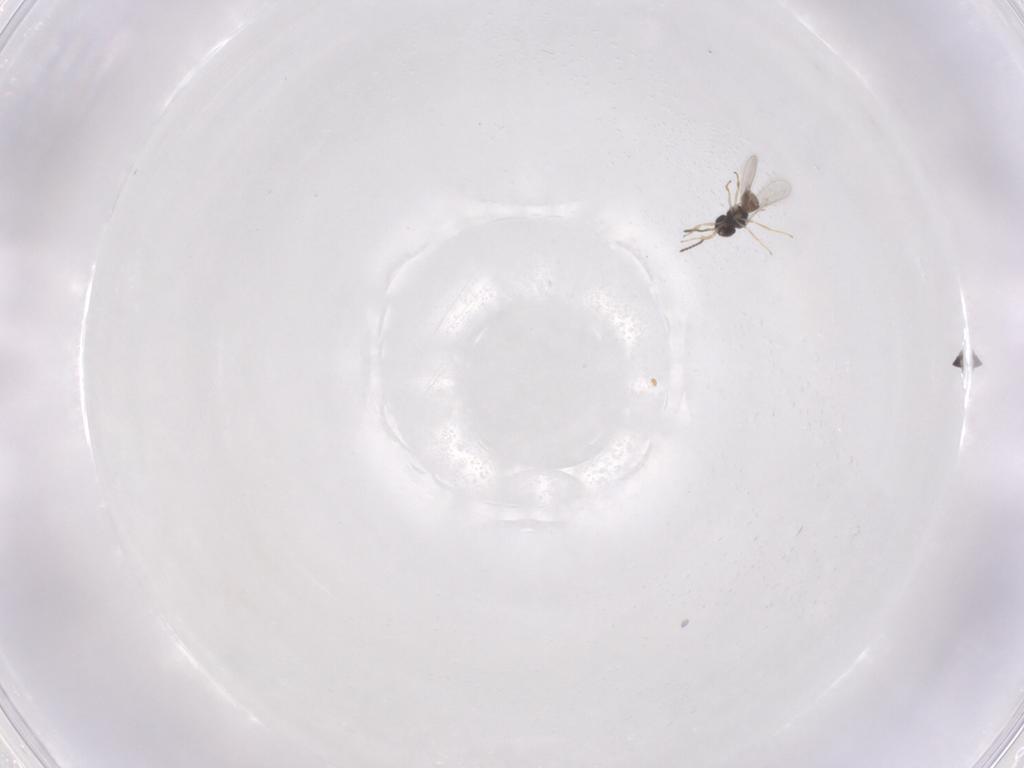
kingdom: Animalia
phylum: Arthropoda
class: Insecta
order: Hymenoptera
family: Scelionidae
